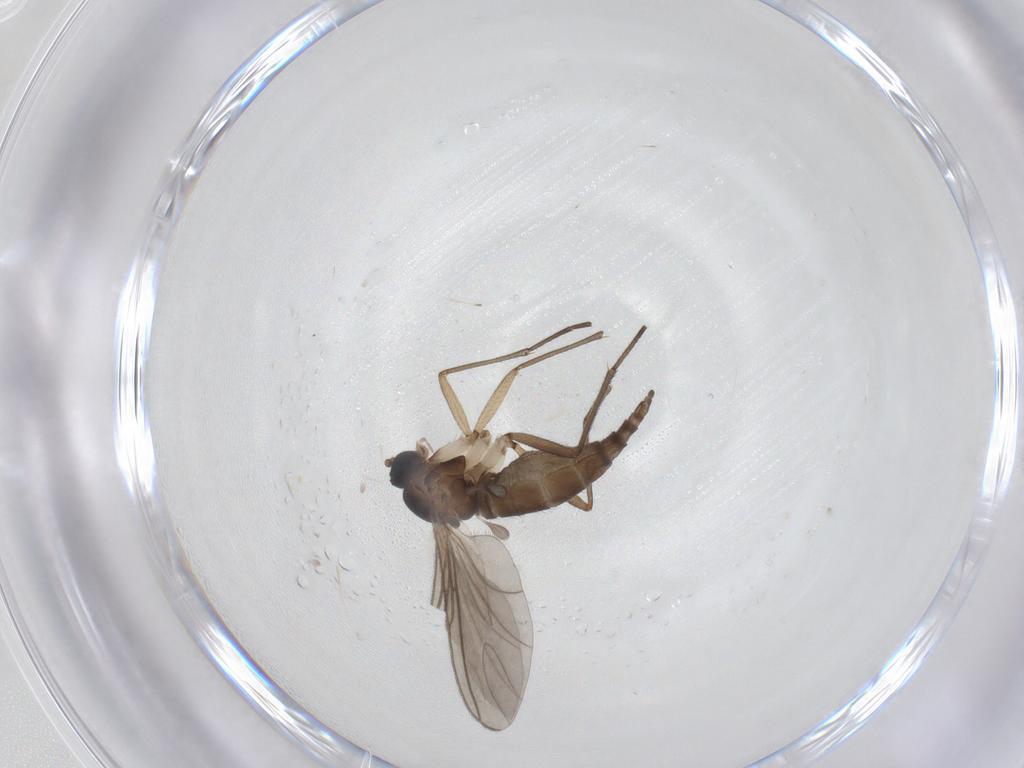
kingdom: Animalia
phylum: Arthropoda
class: Insecta
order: Diptera
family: Sciaridae
